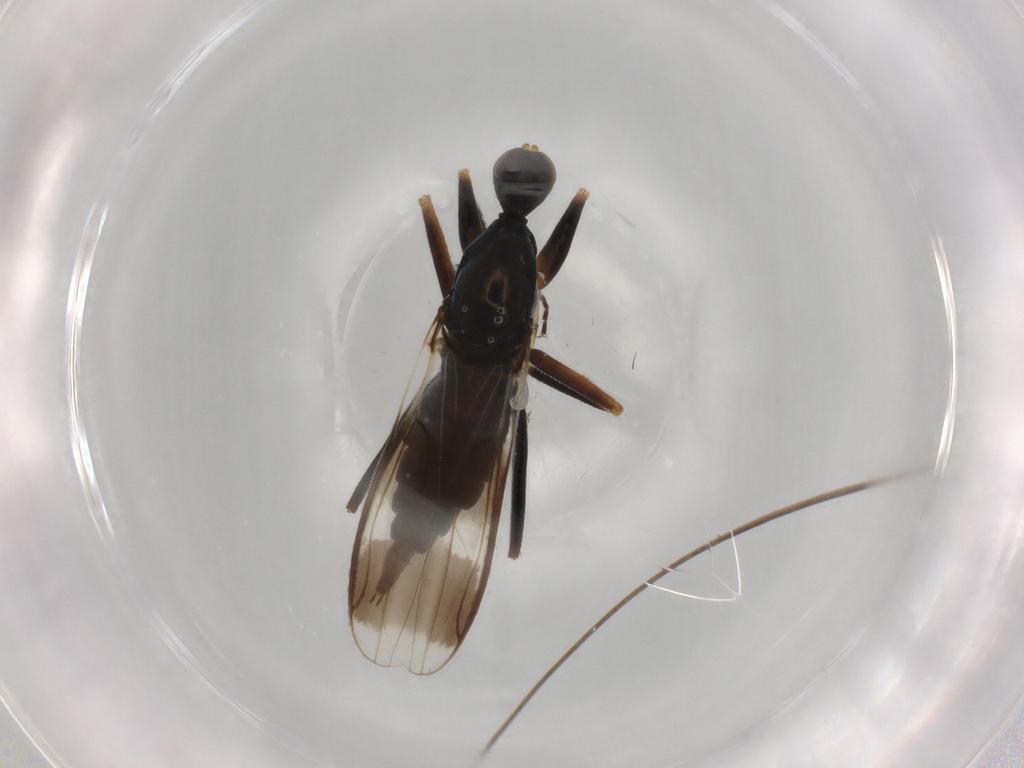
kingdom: Animalia
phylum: Arthropoda
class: Insecta
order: Diptera
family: Hybotidae
